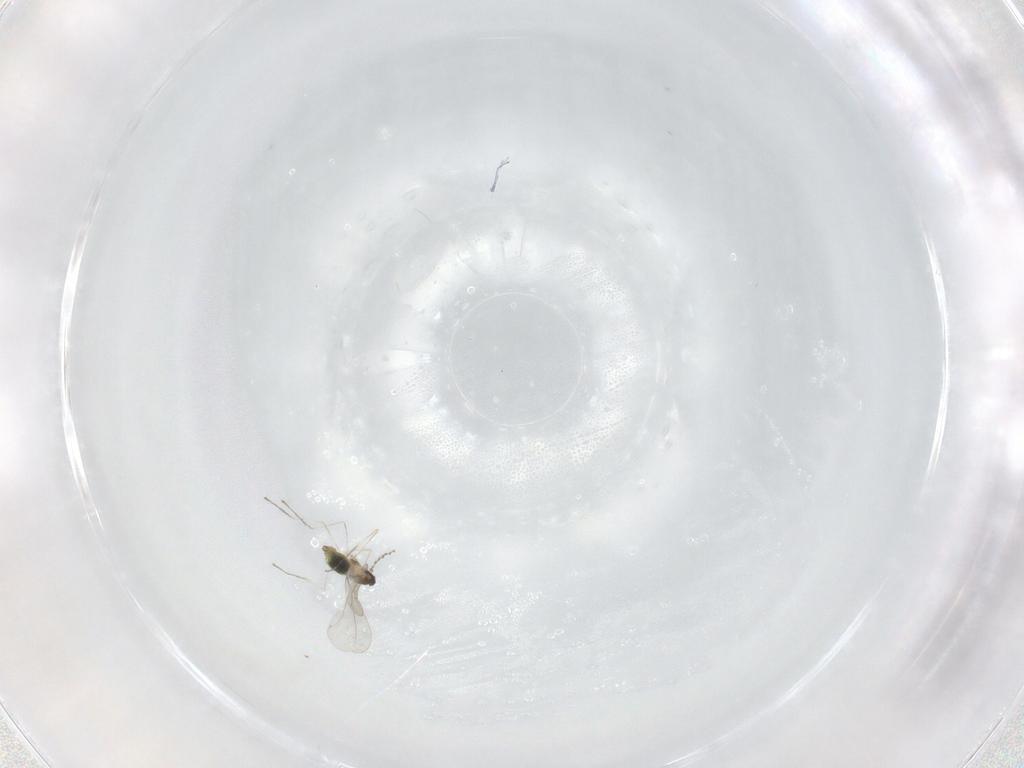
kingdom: Animalia
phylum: Arthropoda
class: Insecta
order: Diptera
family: Cecidomyiidae
